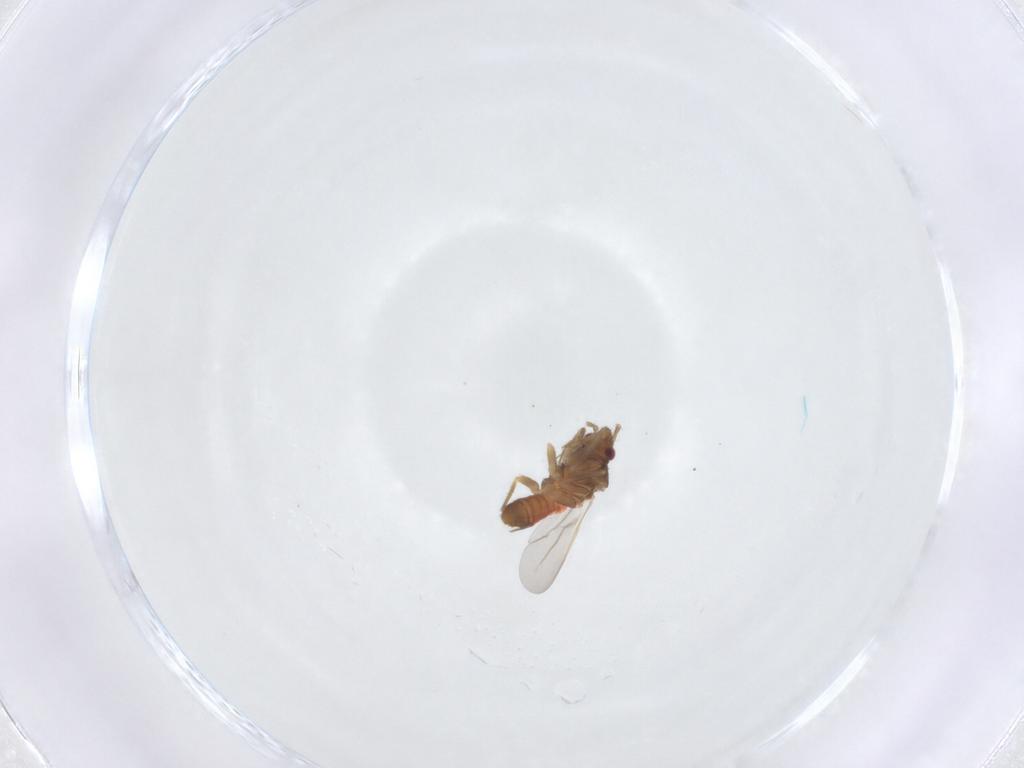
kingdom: Animalia
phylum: Arthropoda
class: Insecta
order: Hemiptera
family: Ceratocombidae
